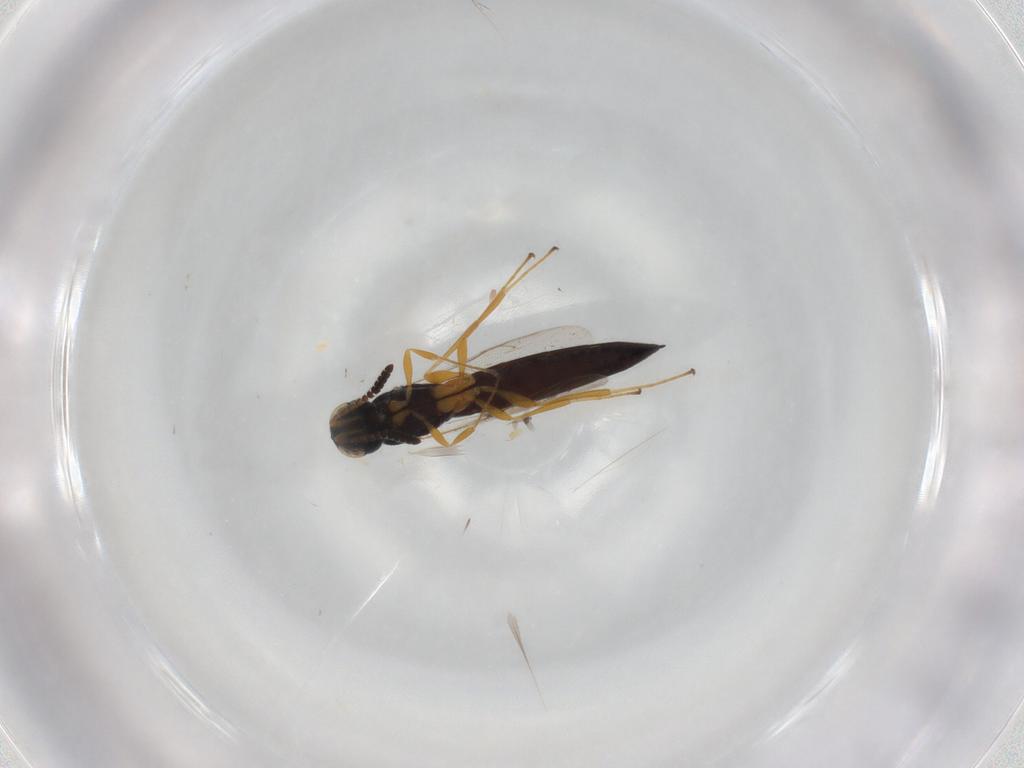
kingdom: Animalia
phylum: Arthropoda
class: Insecta
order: Hymenoptera
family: Scelionidae
